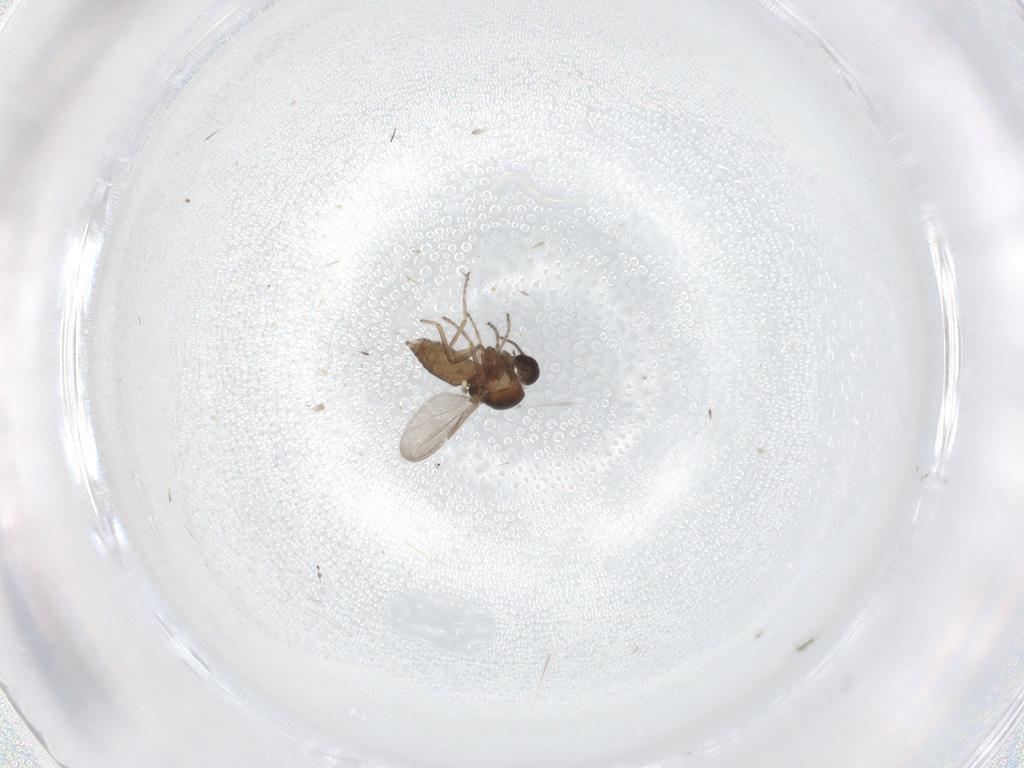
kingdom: Animalia
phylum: Arthropoda
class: Insecta
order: Diptera
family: Ceratopogonidae
